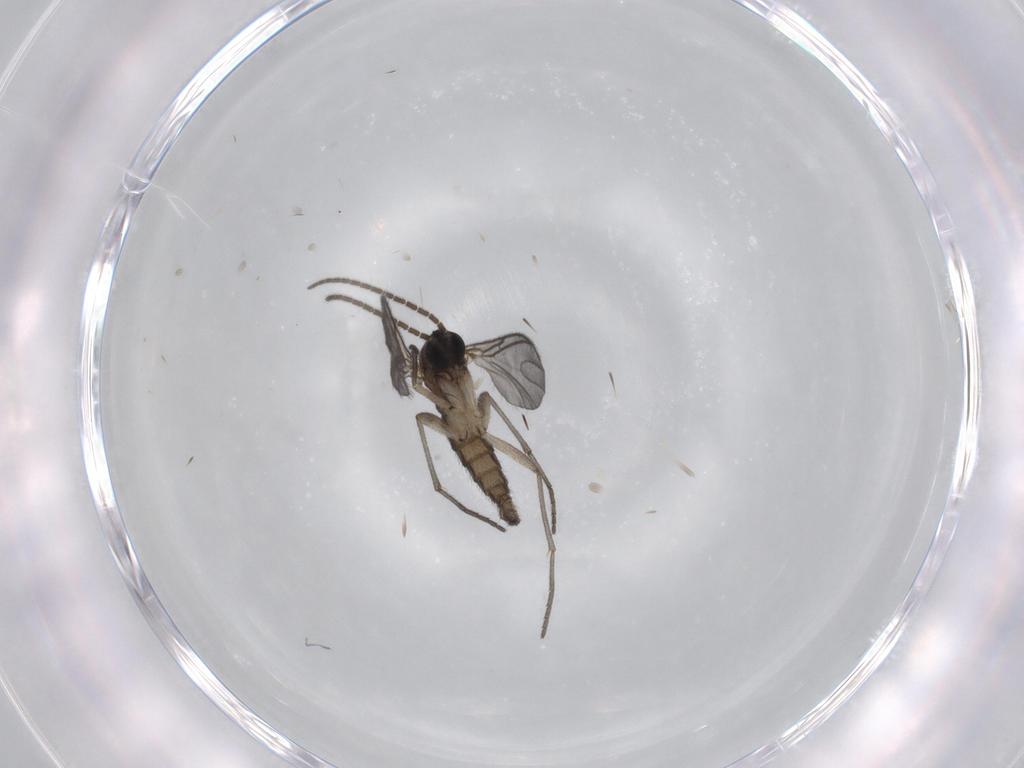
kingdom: Animalia
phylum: Arthropoda
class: Insecta
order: Diptera
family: Sciaridae
